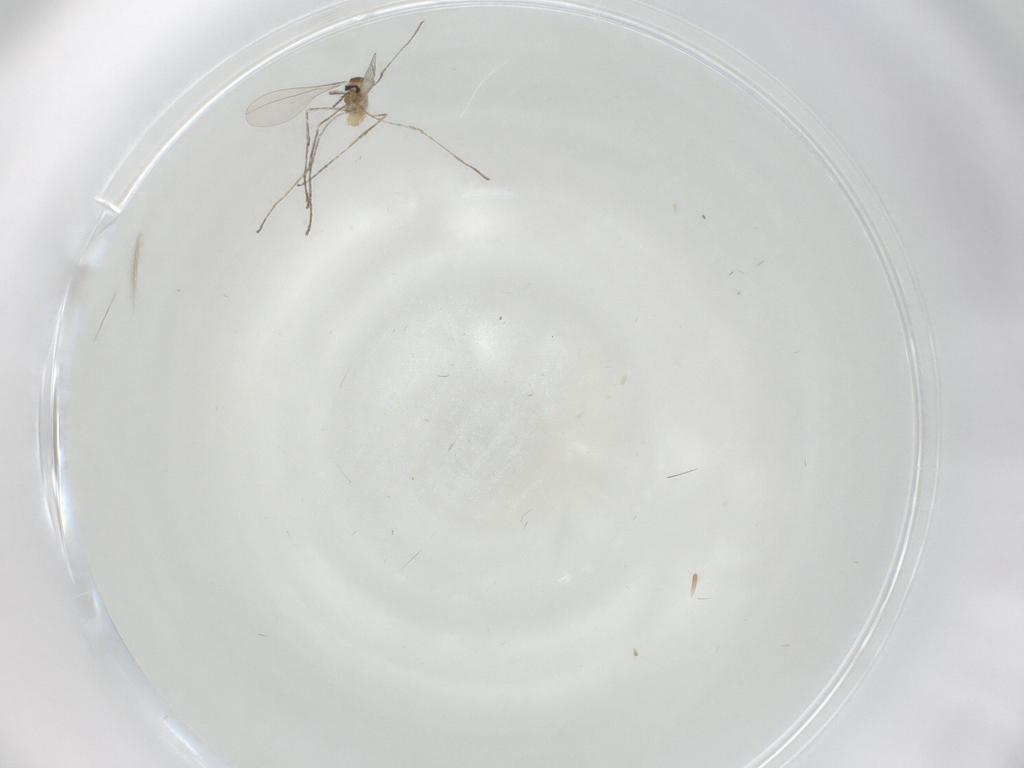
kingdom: Animalia
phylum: Arthropoda
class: Insecta
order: Diptera
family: Cecidomyiidae
